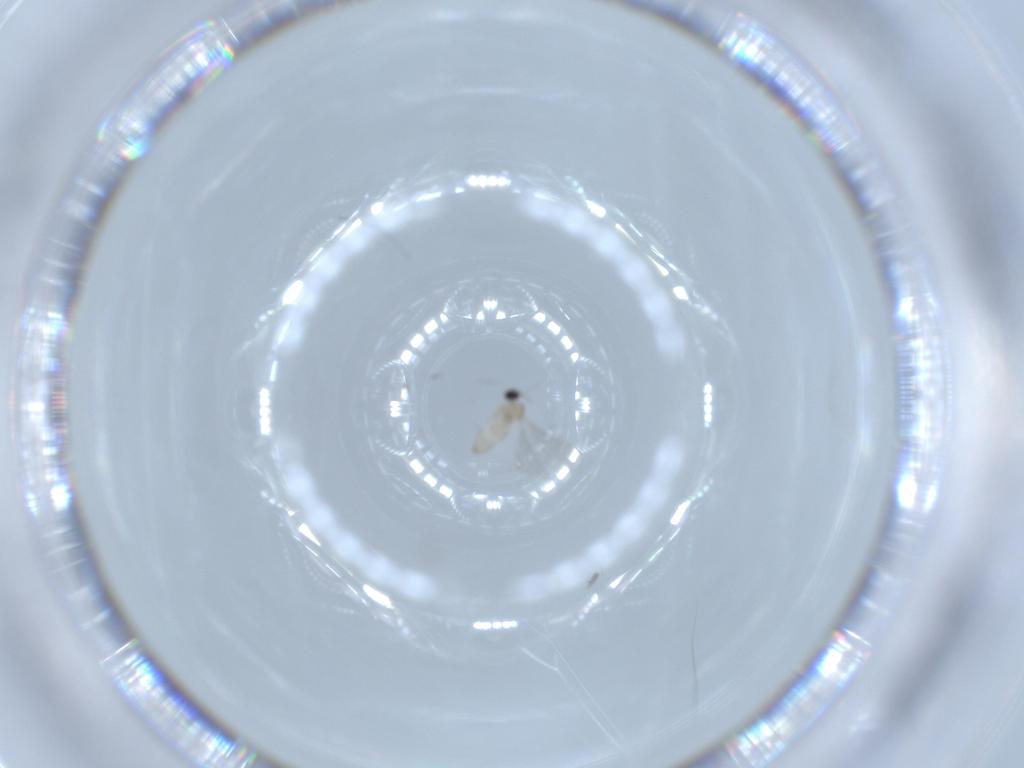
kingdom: Animalia
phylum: Arthropoda
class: Insecta
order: Diptera
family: Cecidomyiidae
